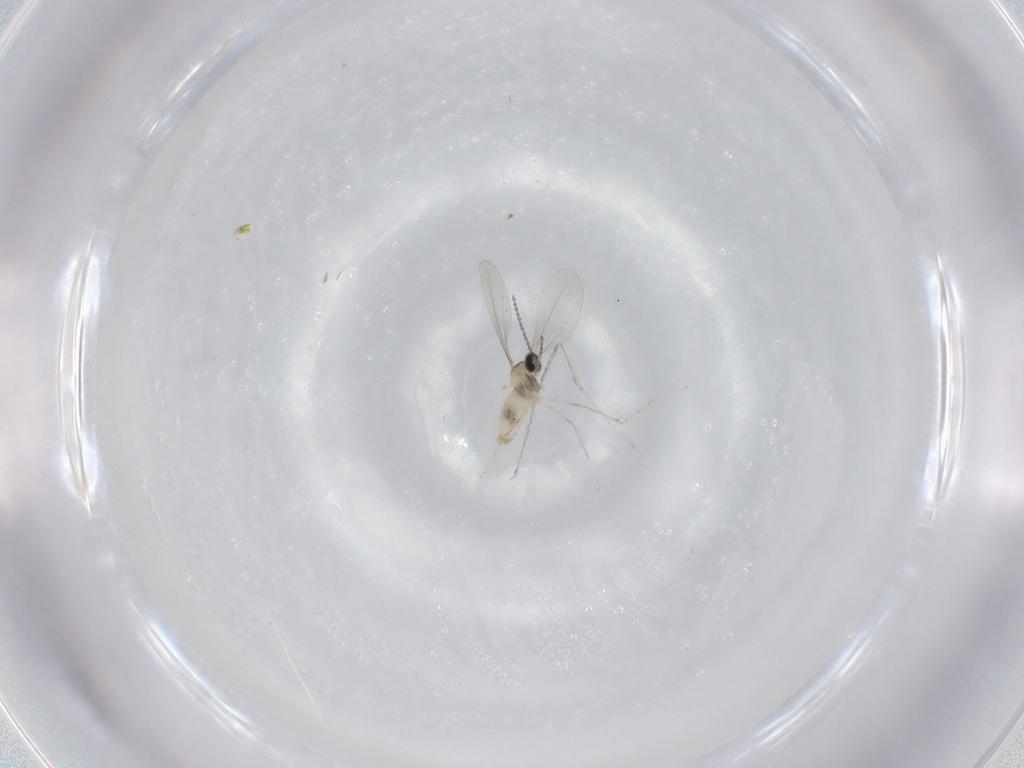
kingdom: Animalia
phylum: Arthropoda
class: Insecta
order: Diptera
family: Cecidomyiidae
